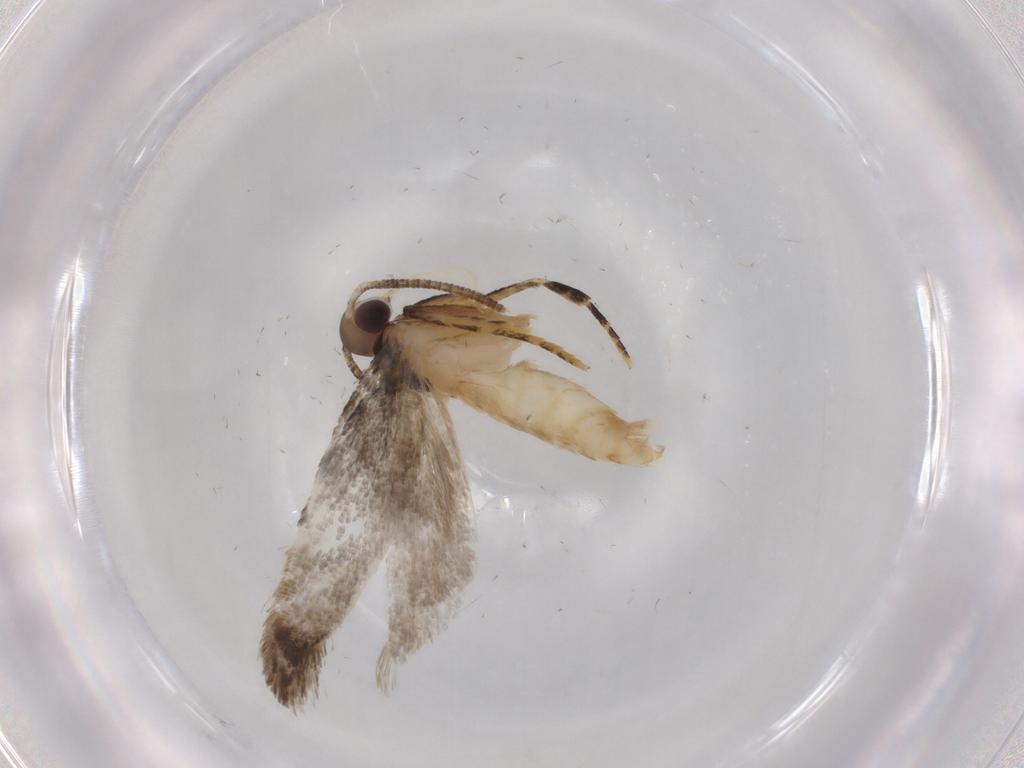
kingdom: Animalia
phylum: Arthropoda
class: Insecta
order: Lepidoptera
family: Autostichidae
